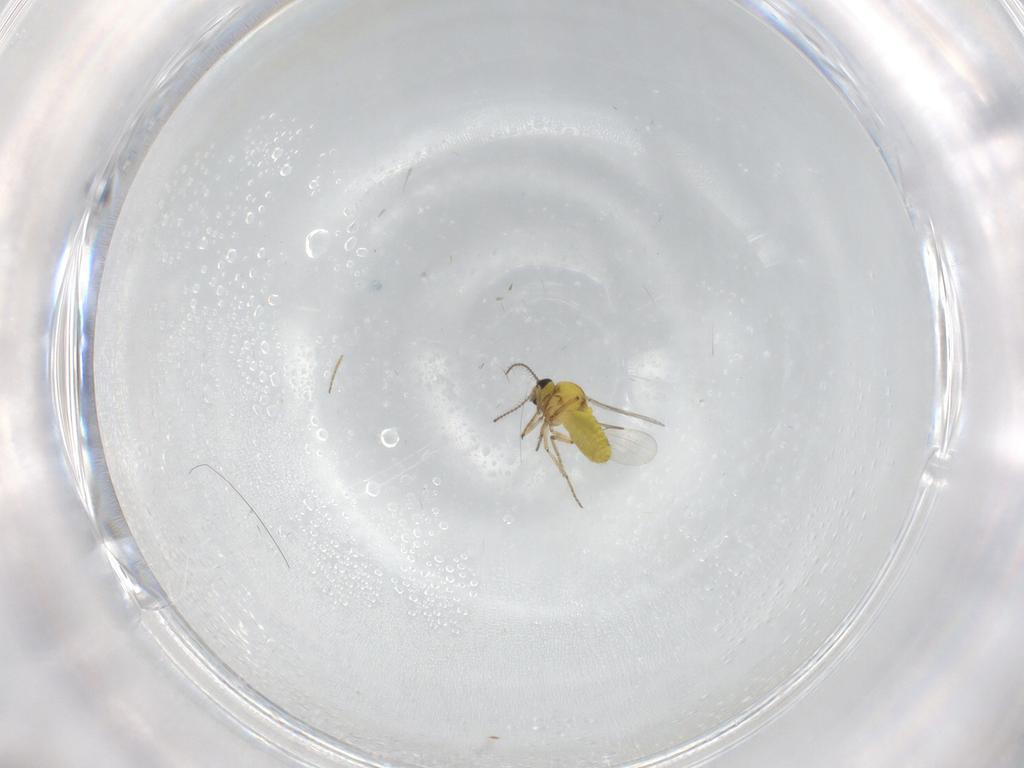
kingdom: Animalia
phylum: Arthropoda
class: Insecta
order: Diptera
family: Ceratopogonidae
